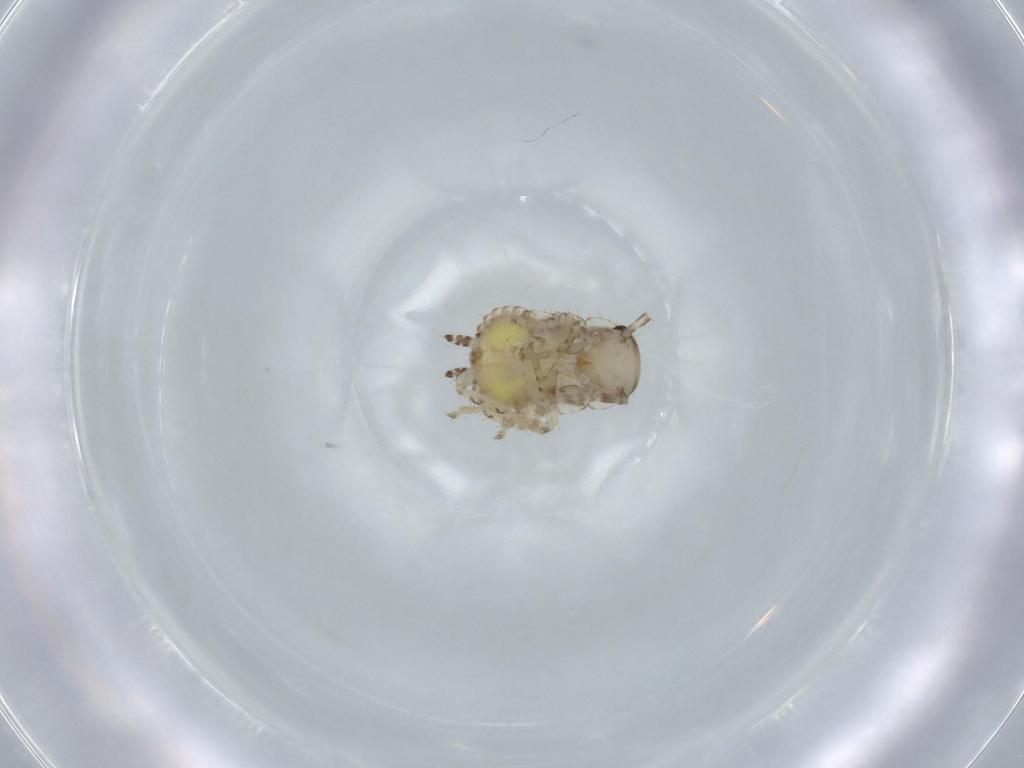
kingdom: Animalia
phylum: Arthropoda
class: Insecta
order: Blattodea
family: Ectobiidae
